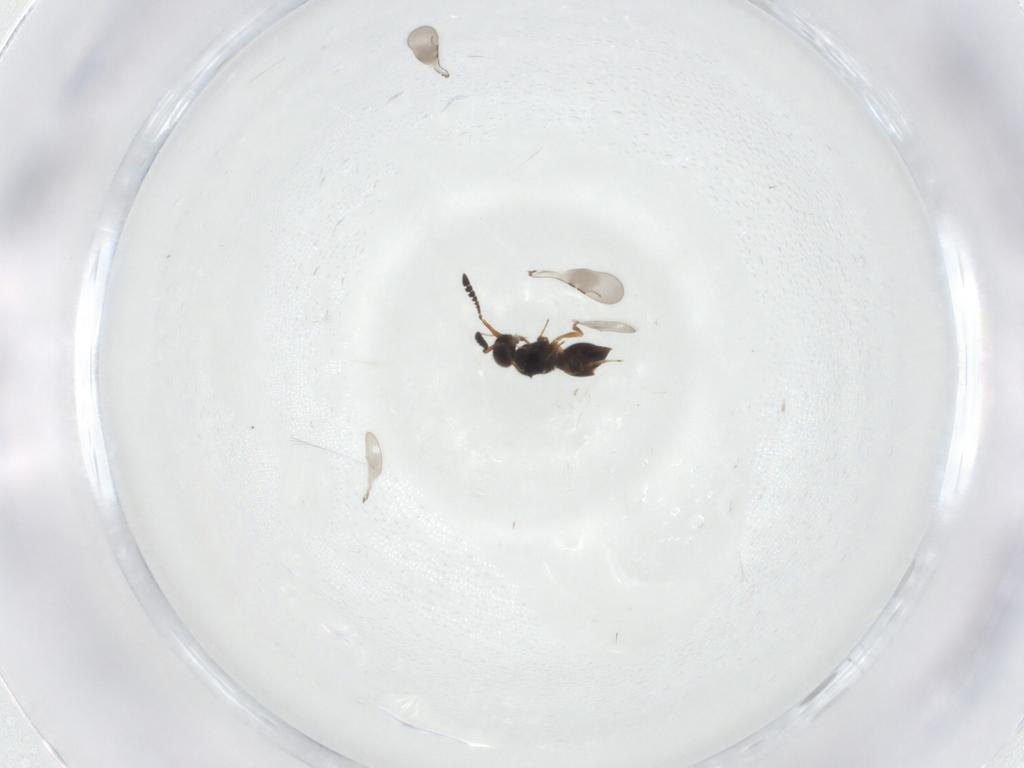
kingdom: Animalia
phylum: Arthropoda
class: Insecta
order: Hymenoptera
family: Ceraphronidae
